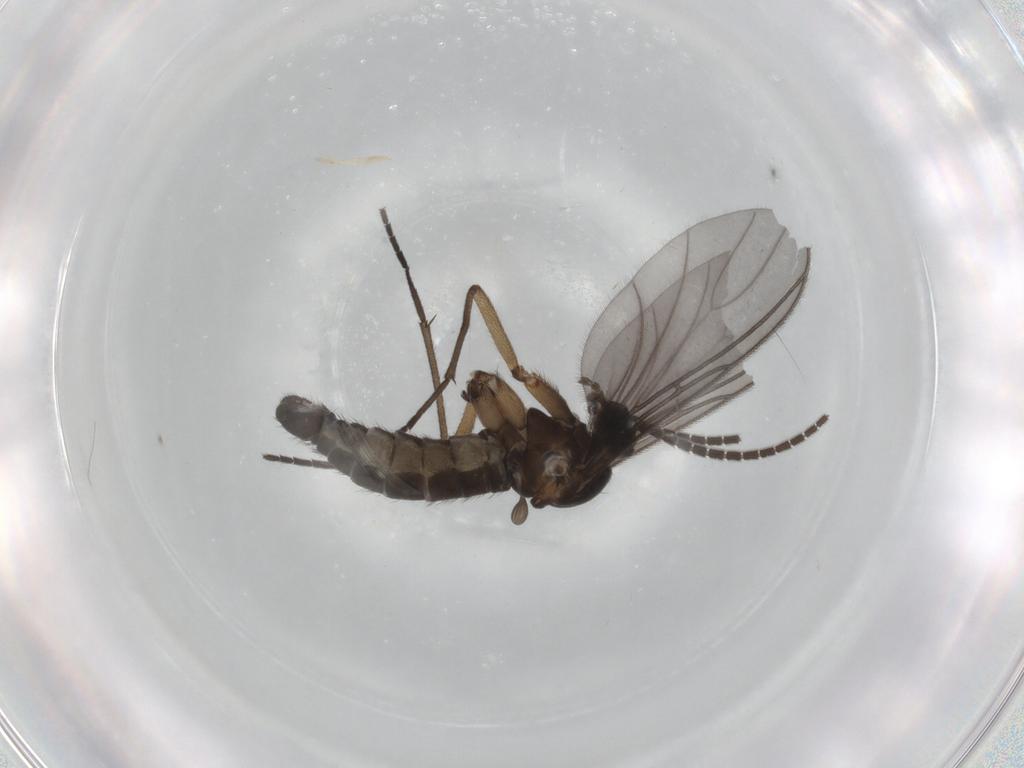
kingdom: Animalia
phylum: Arthropoda
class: Insecta
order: Diptera
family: Sciaridae
